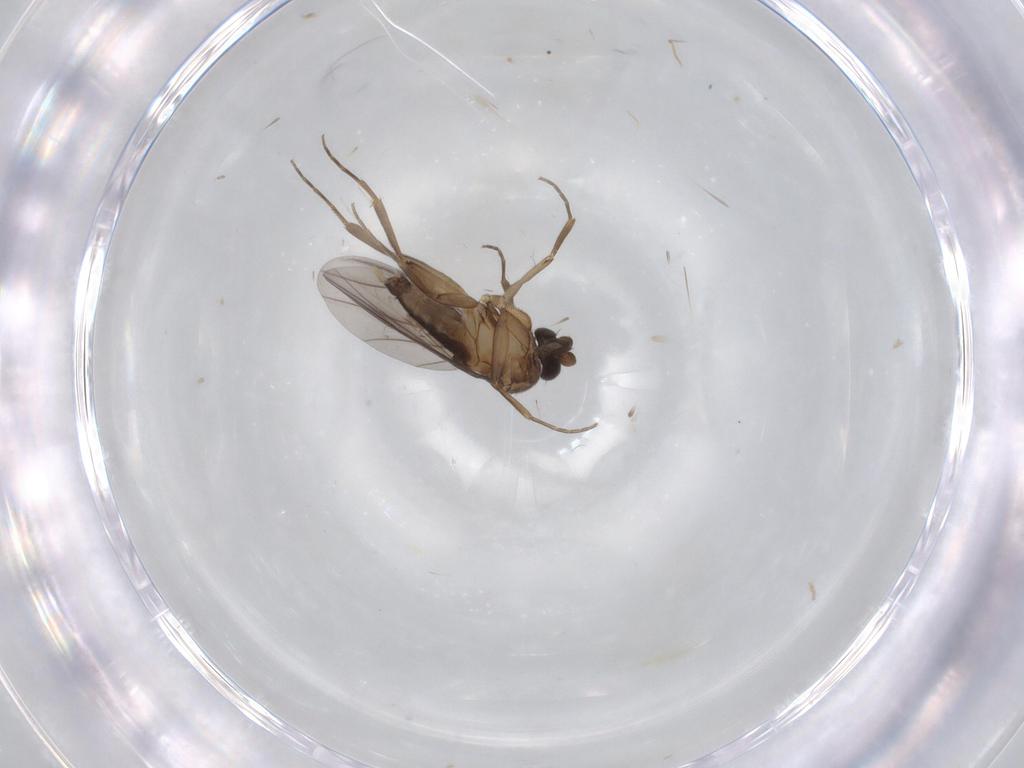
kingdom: Animalia
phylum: Arthropoda
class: Insecta
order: Diptera
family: Phoridae
